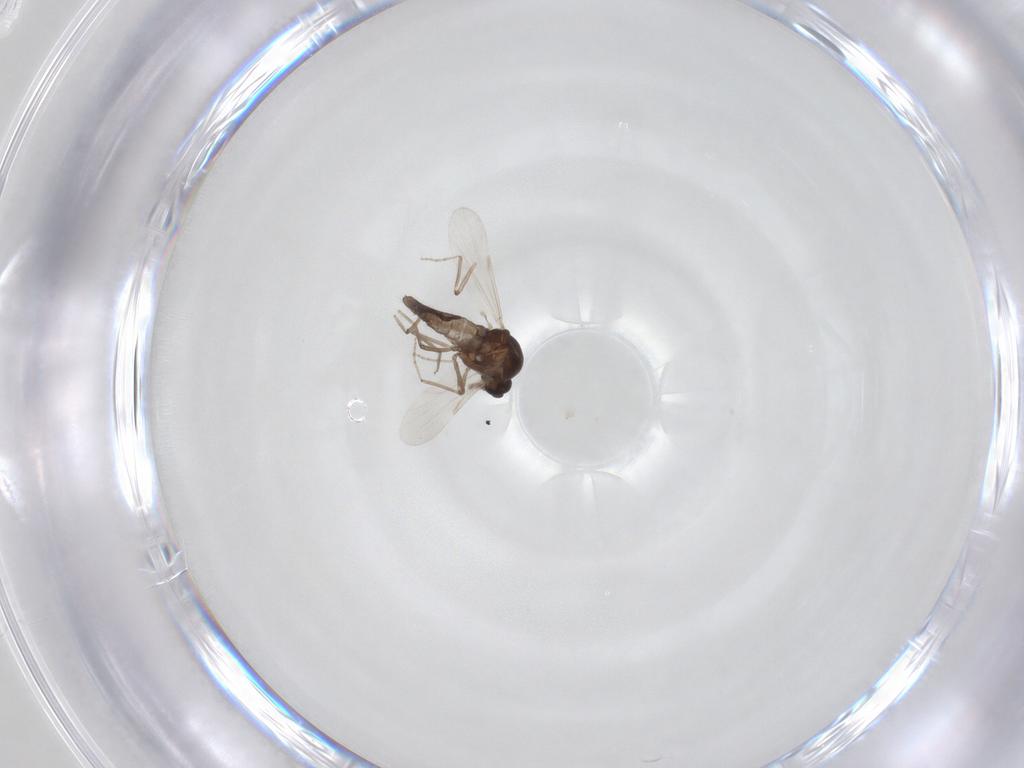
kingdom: Animalia
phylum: Arthropoda
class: Insecta
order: Diptera
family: Ceratopogonidae
